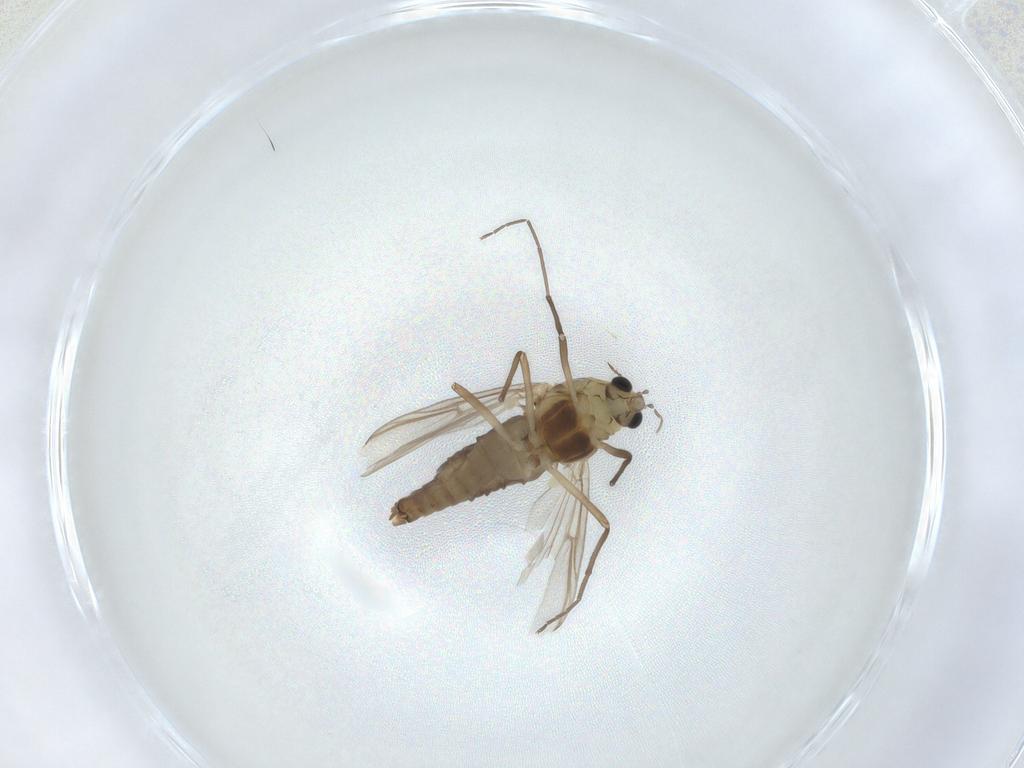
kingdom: Animalia
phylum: Arthropoda
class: Insecta
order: Diptera
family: Chironomidae
